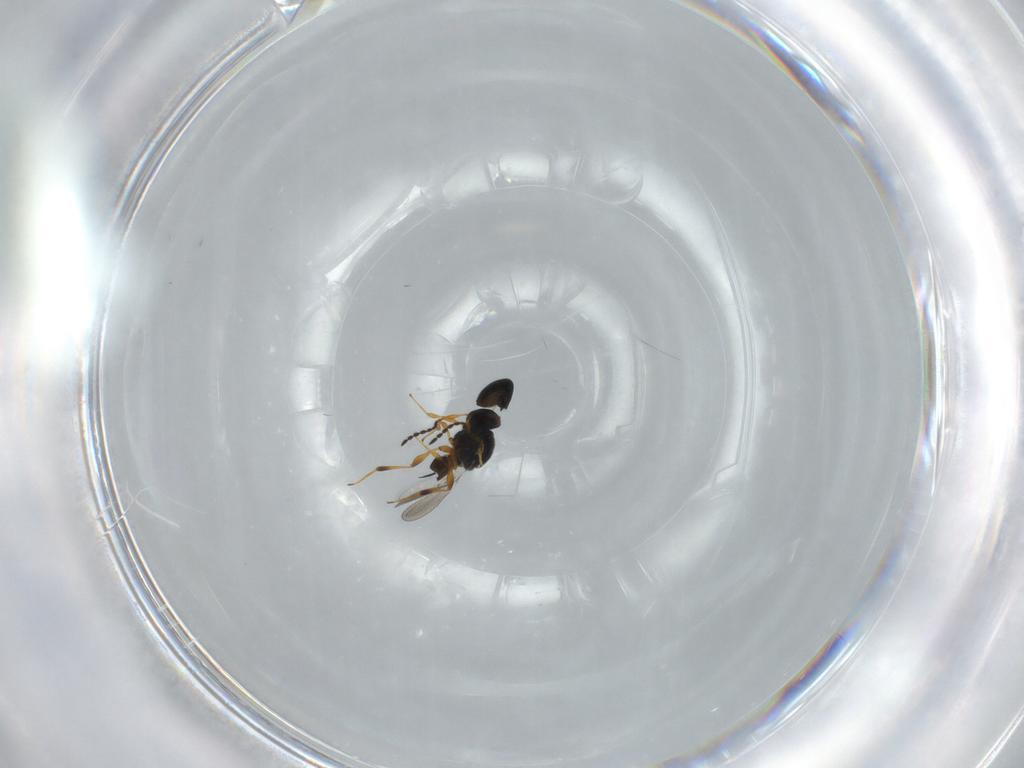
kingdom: Animalia
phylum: Arthropoda
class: Insecta
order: Hymenoptera
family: Platygastridae
